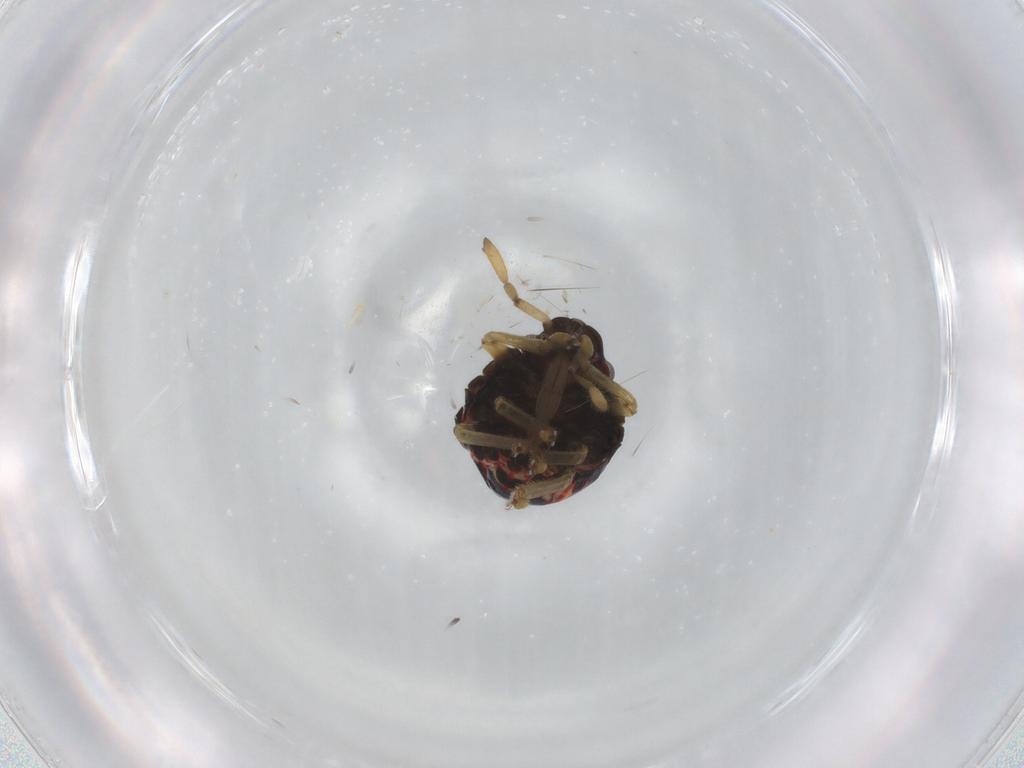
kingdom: Animalia
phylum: Arthropoda
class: Insecta
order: Hemiptera
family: Pentatomidae
